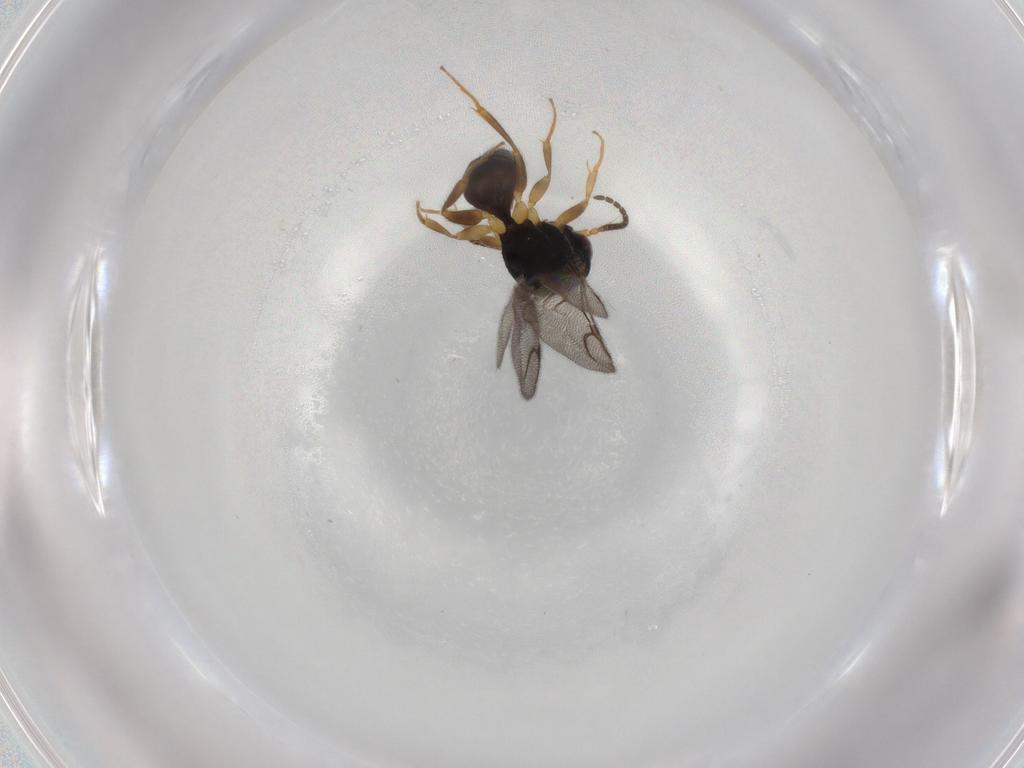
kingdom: Animalia
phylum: Arthropoda
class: Insecta
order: Hymenoptera
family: Bethylidae
